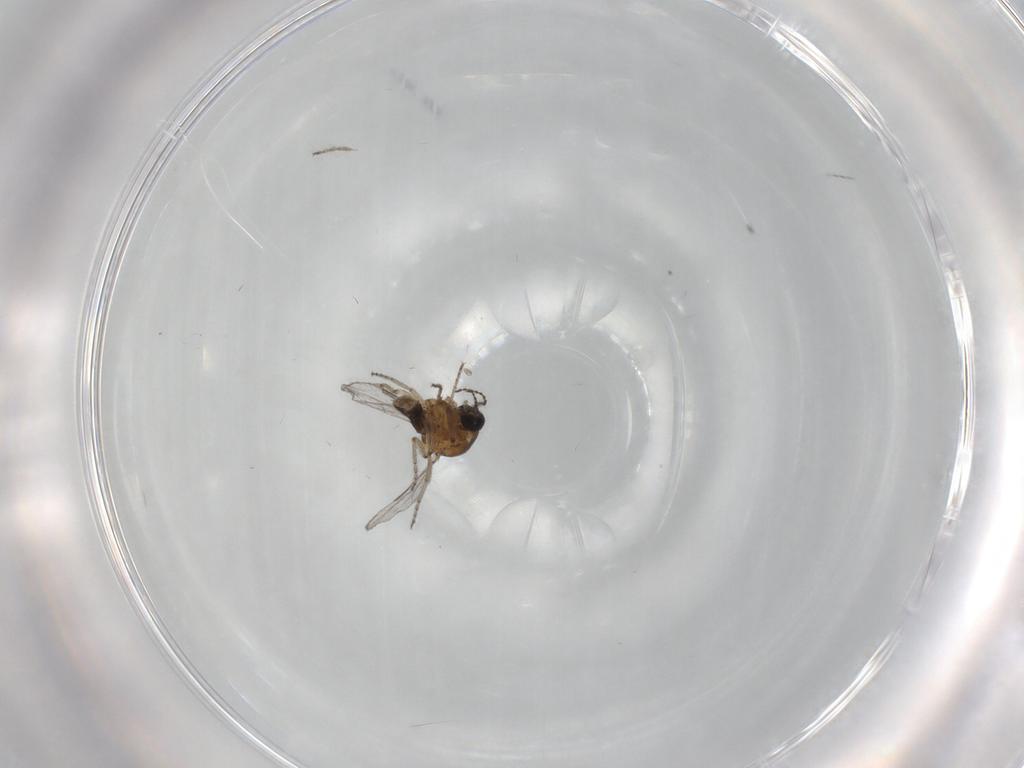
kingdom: Animalia
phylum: Arthropoda
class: Insecta
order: Diptera
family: Ceratopogonidae
